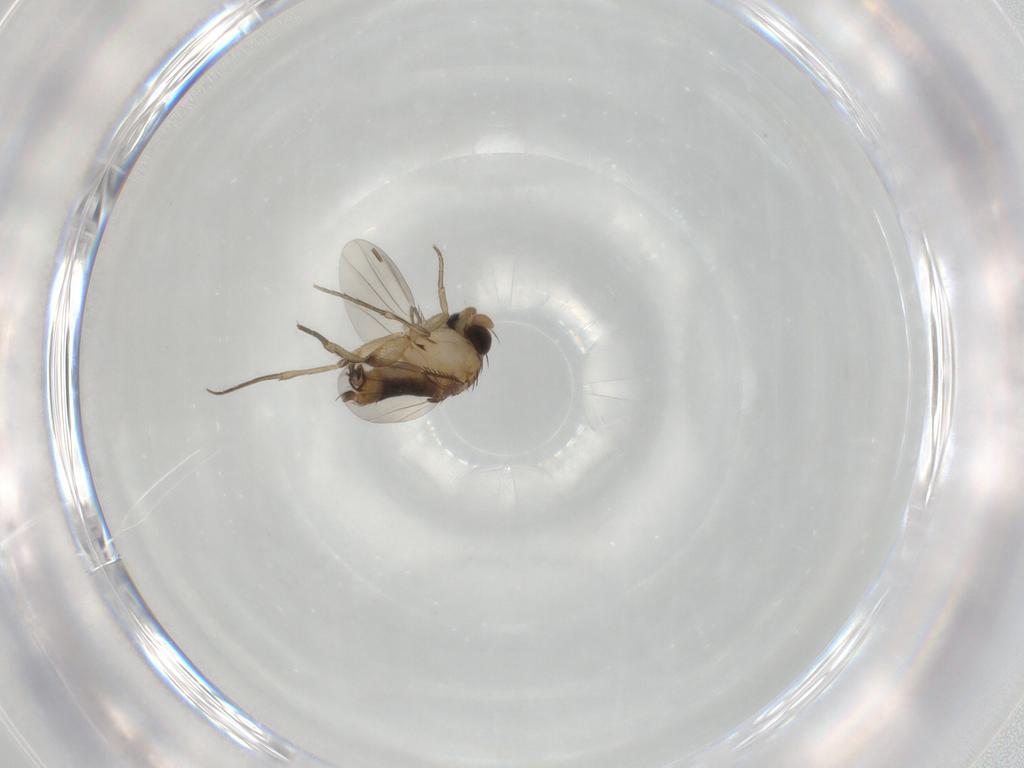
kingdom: Animalia
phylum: Arthropoda
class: Insecta
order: Diptera
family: Phoridae
